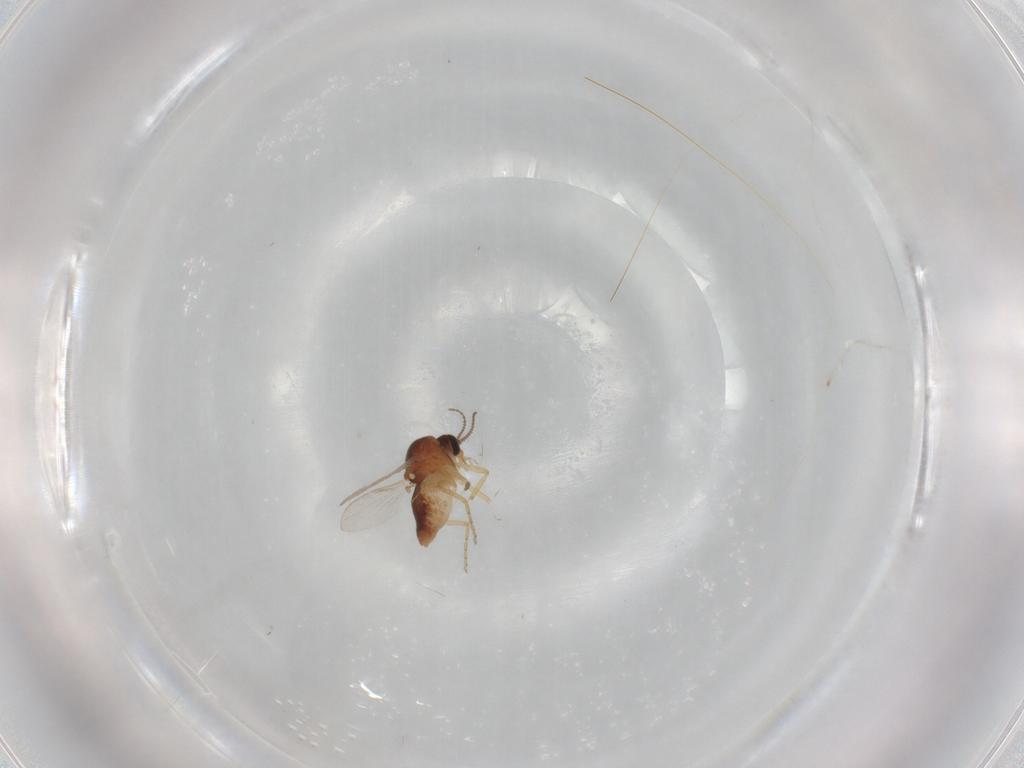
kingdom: Animalia
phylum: Arthropoda
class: Insecta
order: Diptera
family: Ceratopogonidae
